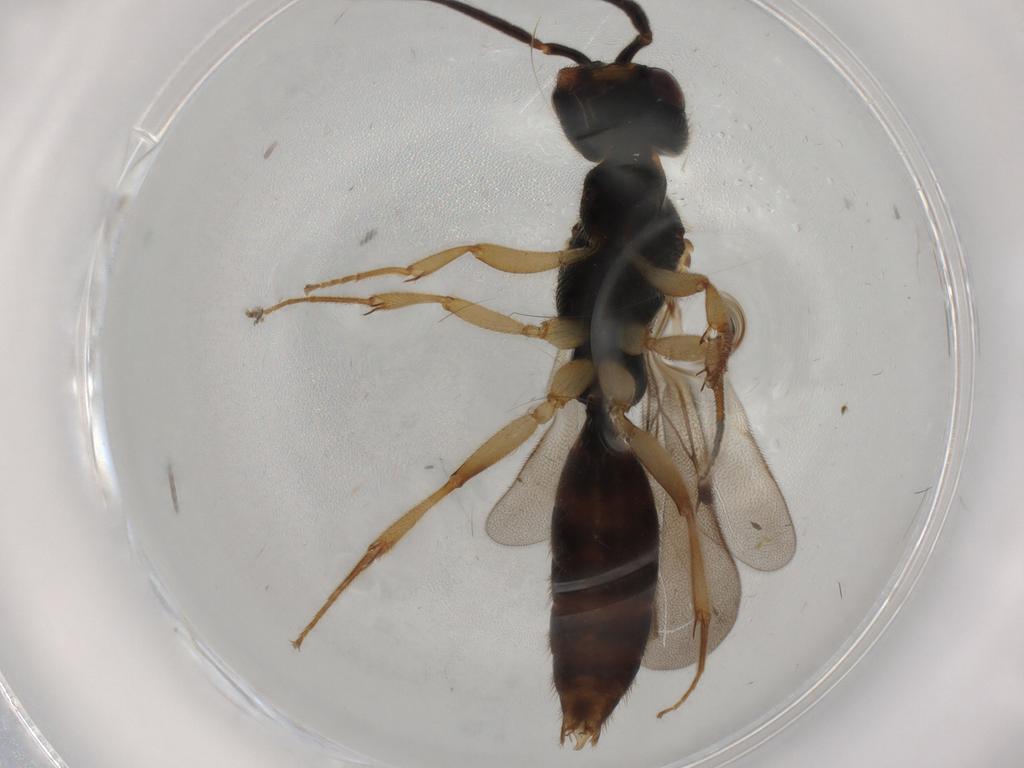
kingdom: Animalia
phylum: Arthropoda
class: Insecta
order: Hymenoptera
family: Bethylidae
